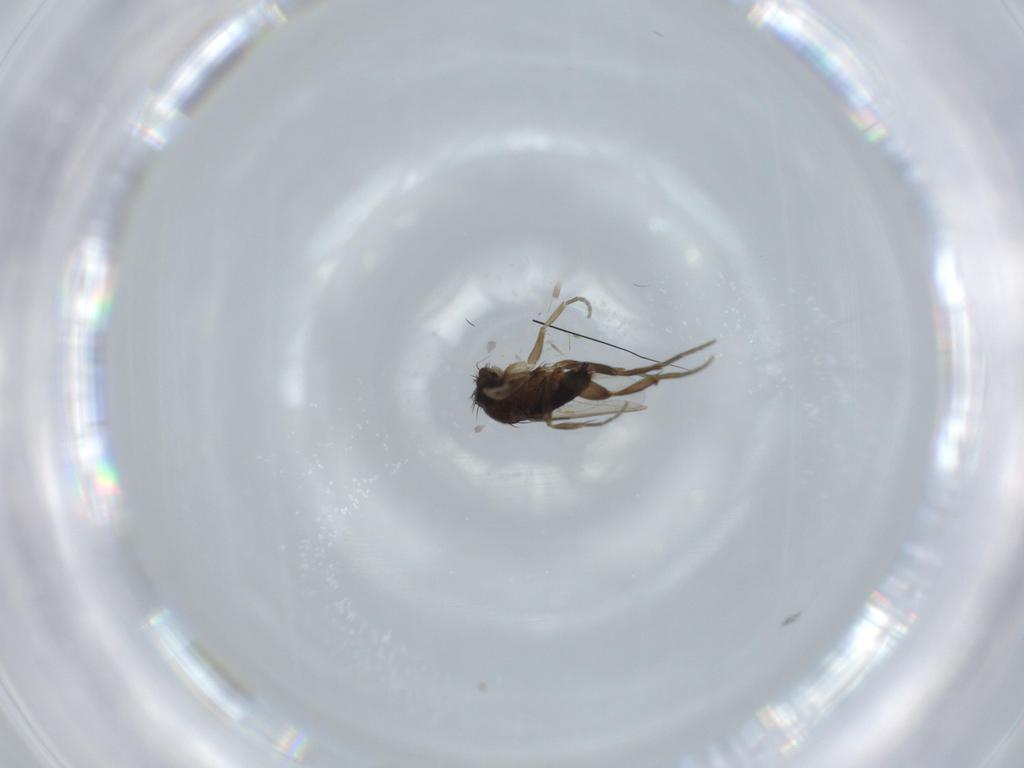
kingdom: Animalia
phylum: Arthropoda
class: Insecta
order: Diptera
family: Phoridae
